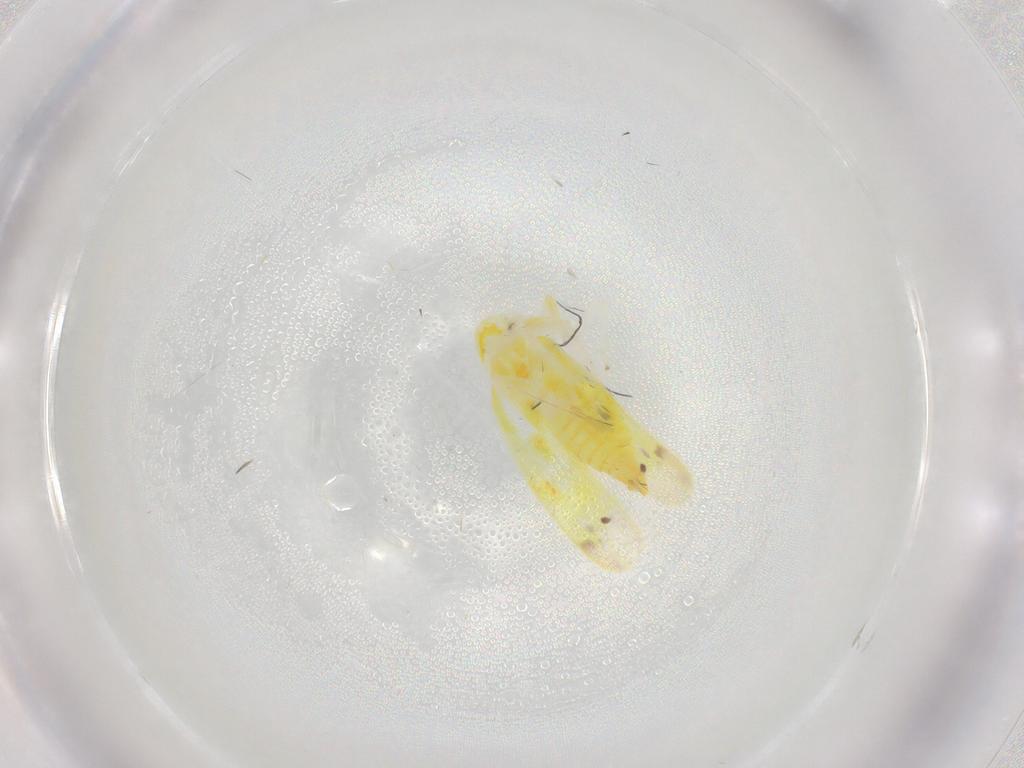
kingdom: Animalia
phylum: Arthropoda
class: Insecta
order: Hemiptera
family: Cicadellidae
